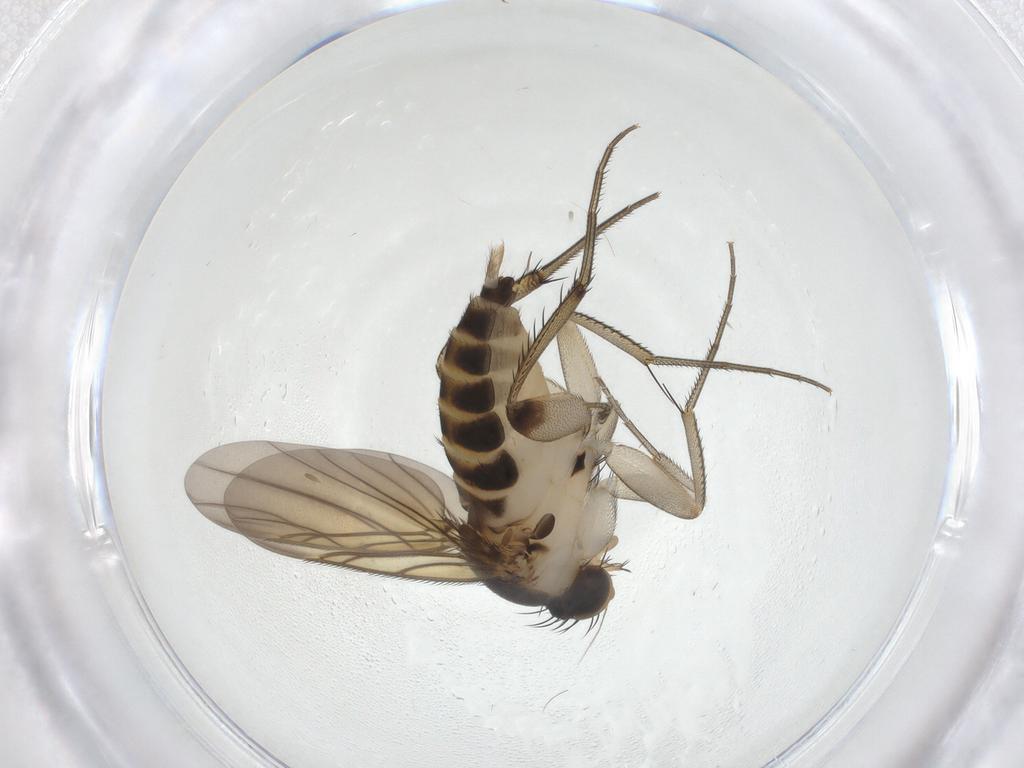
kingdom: Animalia
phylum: Arthropoda
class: Insecta
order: Diptera
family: Phoridae
